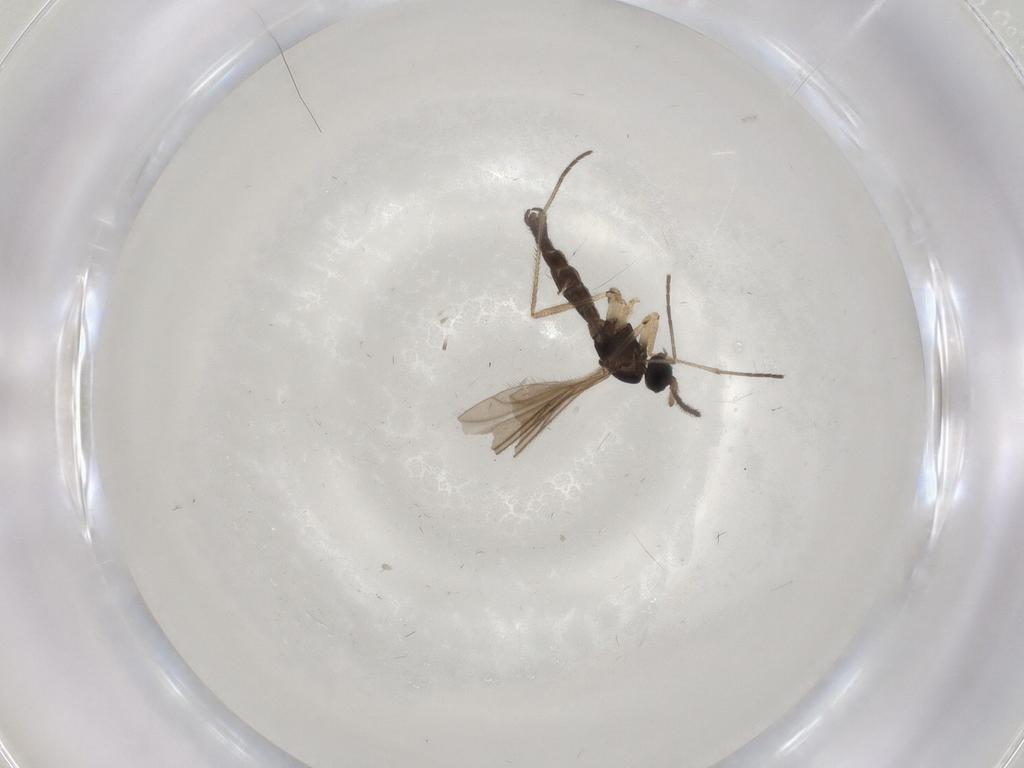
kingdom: Animalia
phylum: Arthropoda
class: Insecta
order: Diptera
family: Sciaridae
